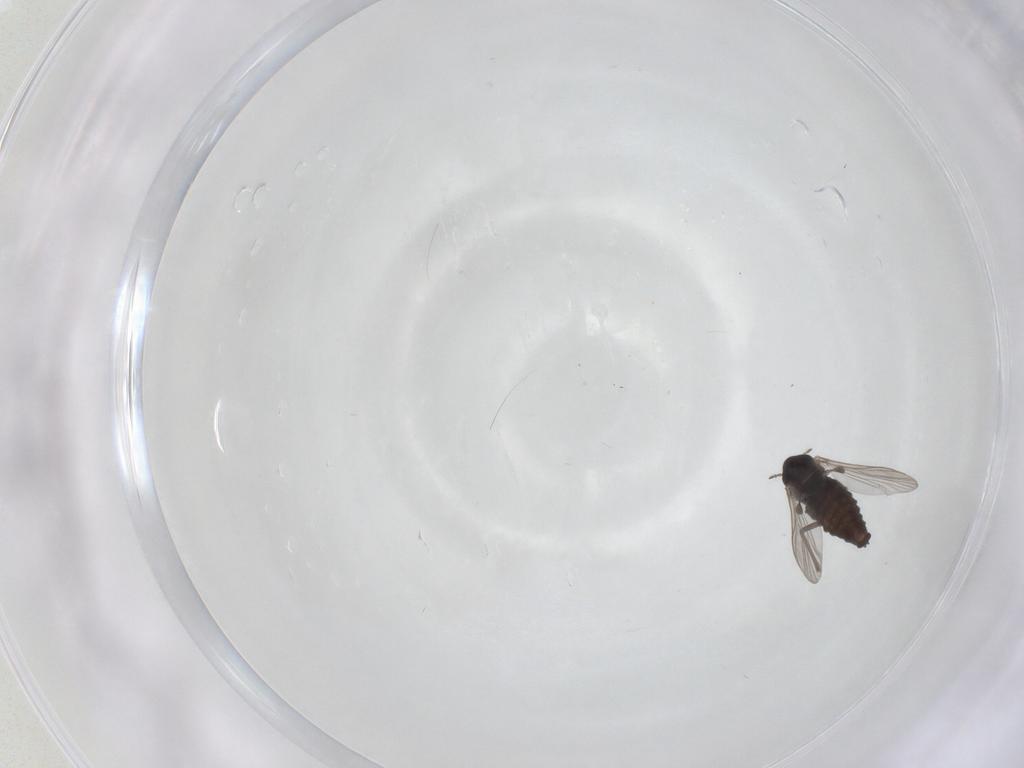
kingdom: Animalia
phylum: Arthropoda
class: Insecta
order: Diptera
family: Chironomidae
